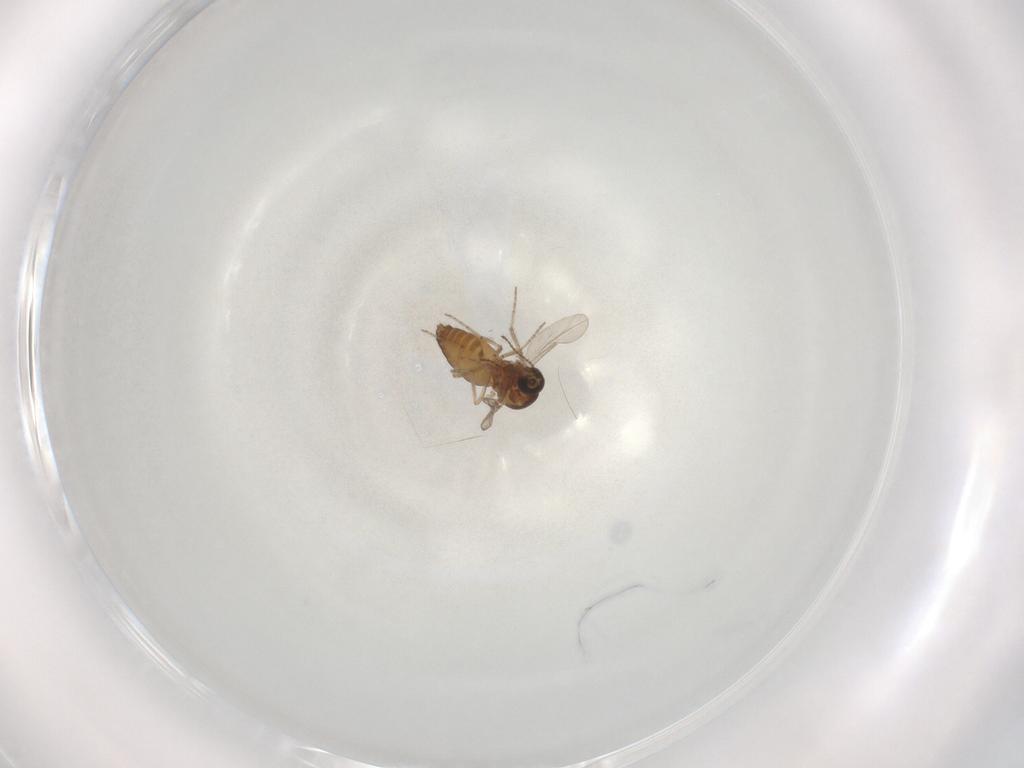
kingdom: Animalia
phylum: Arthropoda
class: Insecta
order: Diptera
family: Ceratopogonidae
